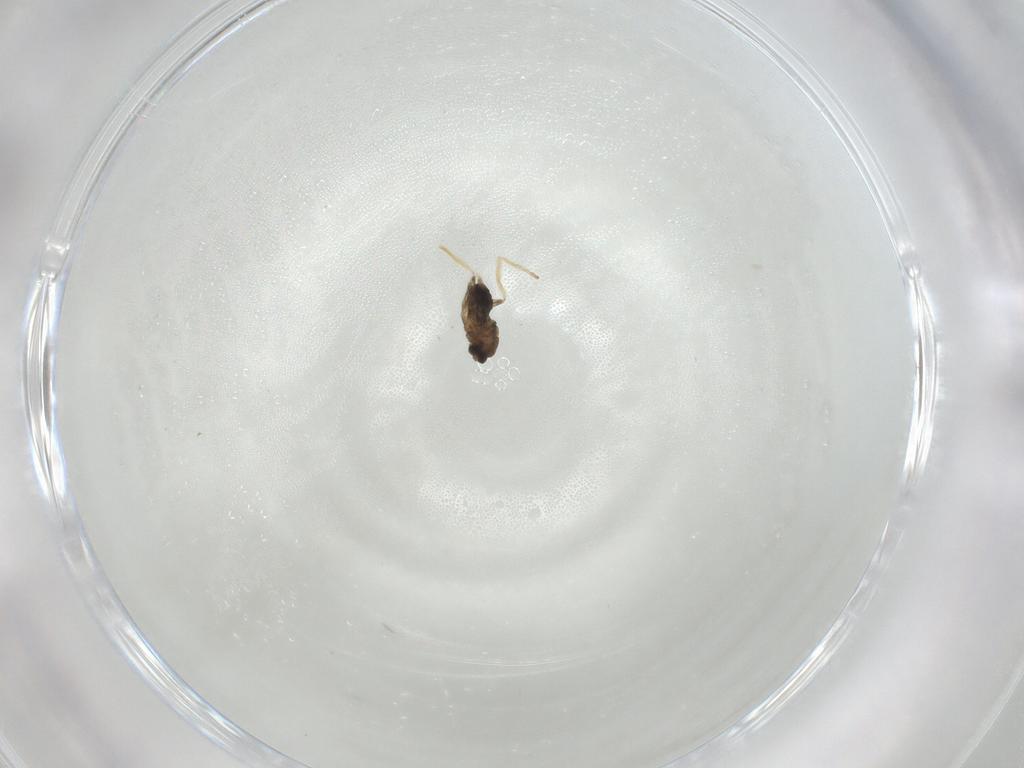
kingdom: Animalia
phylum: Arthropoda
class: Insecta
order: Diptera
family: Cecidomyiidae
